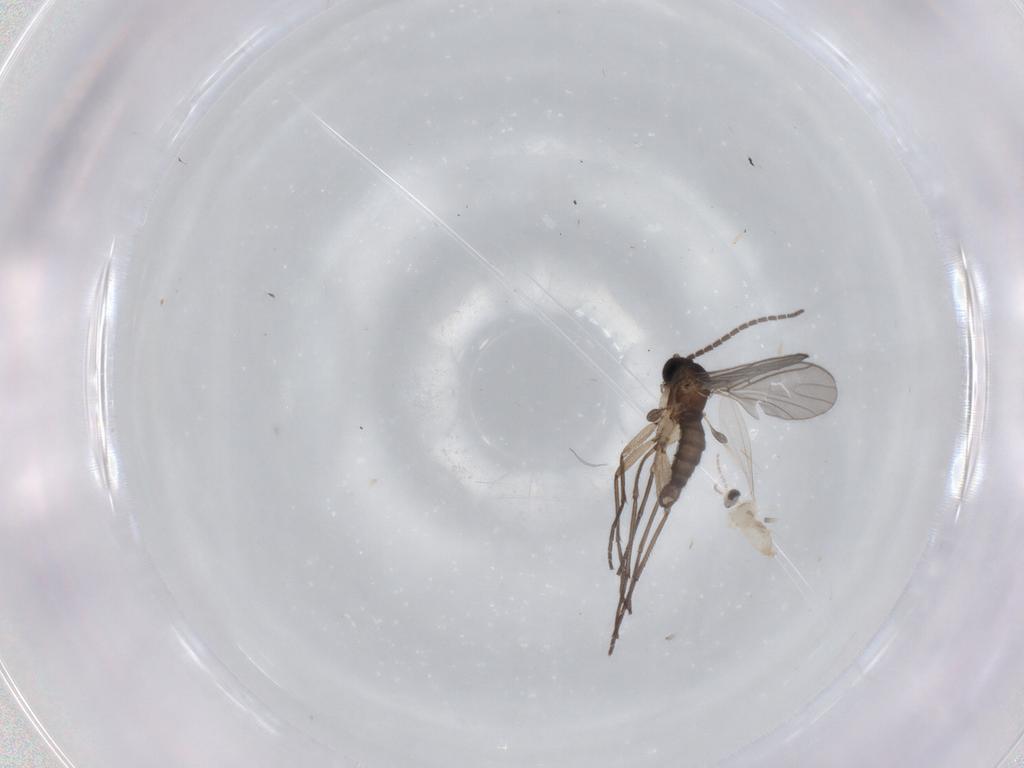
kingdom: Animalia
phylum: Arthropoda
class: Insecta
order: Diptera
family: Cecidomyiidae
